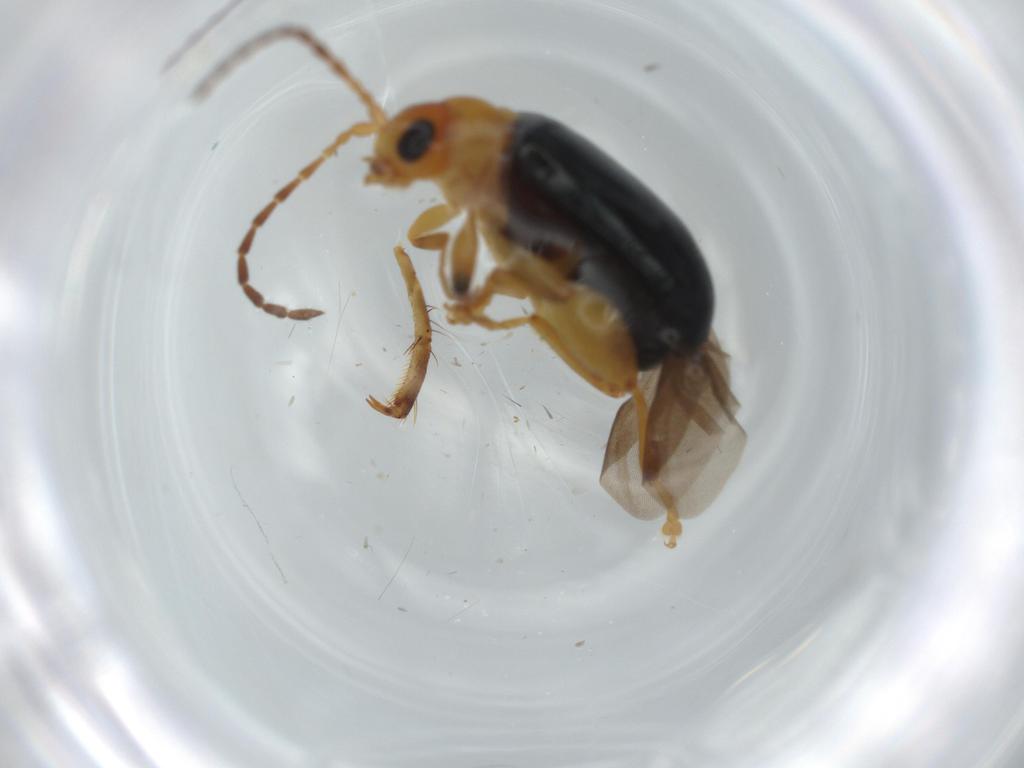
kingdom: Animalia
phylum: Arthropoda
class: Insecta
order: Coleoptera
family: Chrysomelidae
